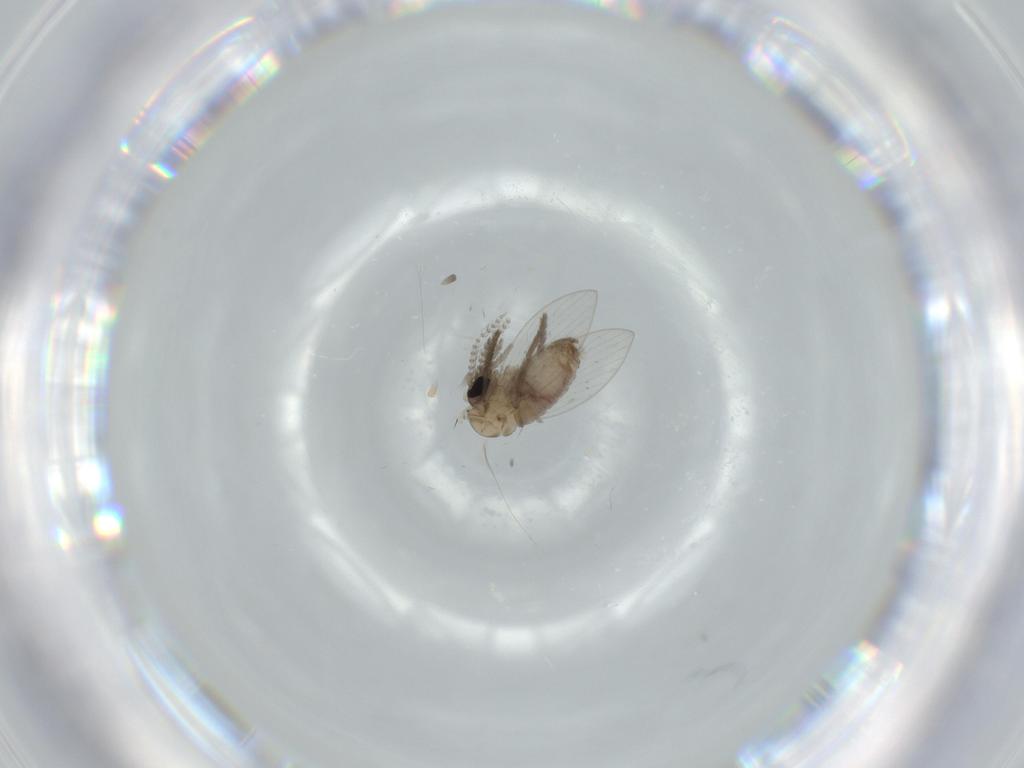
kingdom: Animalia
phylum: Arthropoda
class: Insecta
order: Diptera
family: Psychodidae
